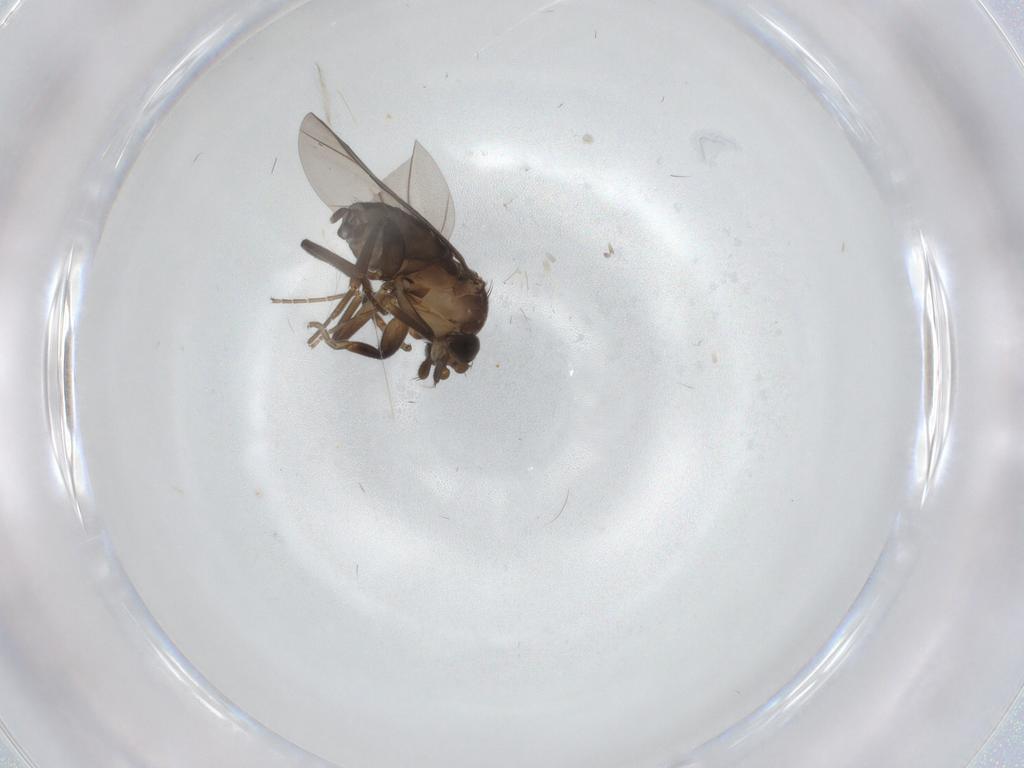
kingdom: Animalia
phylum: Arthropoda
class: Insecta
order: Diptera
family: Phoridae
